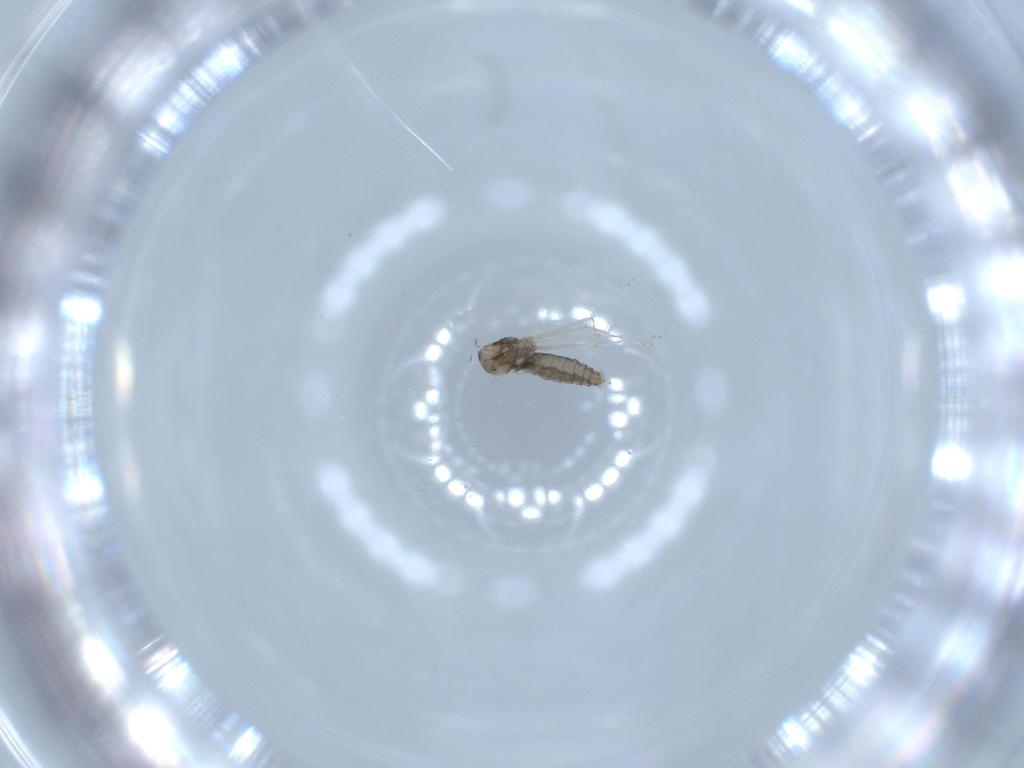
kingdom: Animalia
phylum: Arthropoda
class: Insecta
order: Diptera
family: Cecidomyiidae
